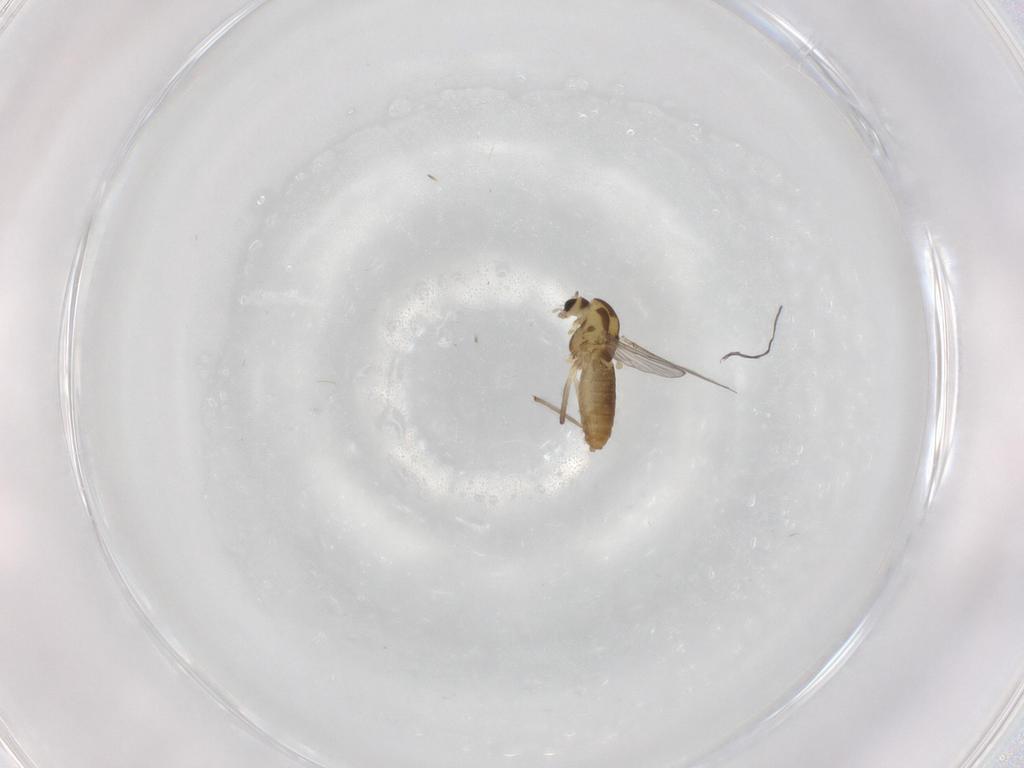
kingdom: Animalia
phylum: Arthropoda
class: Insecta
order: Diptera
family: Chironomidae
